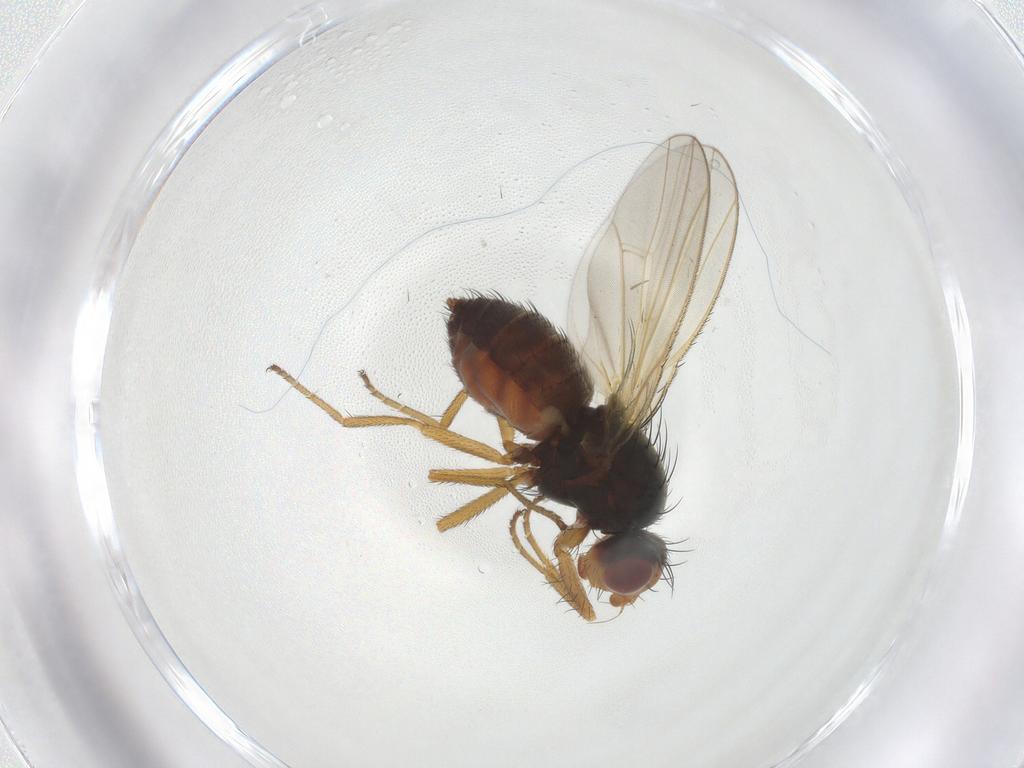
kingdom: Animalia
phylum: Arthropoda
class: Insecta
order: Diptera
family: Heleomyzidae
